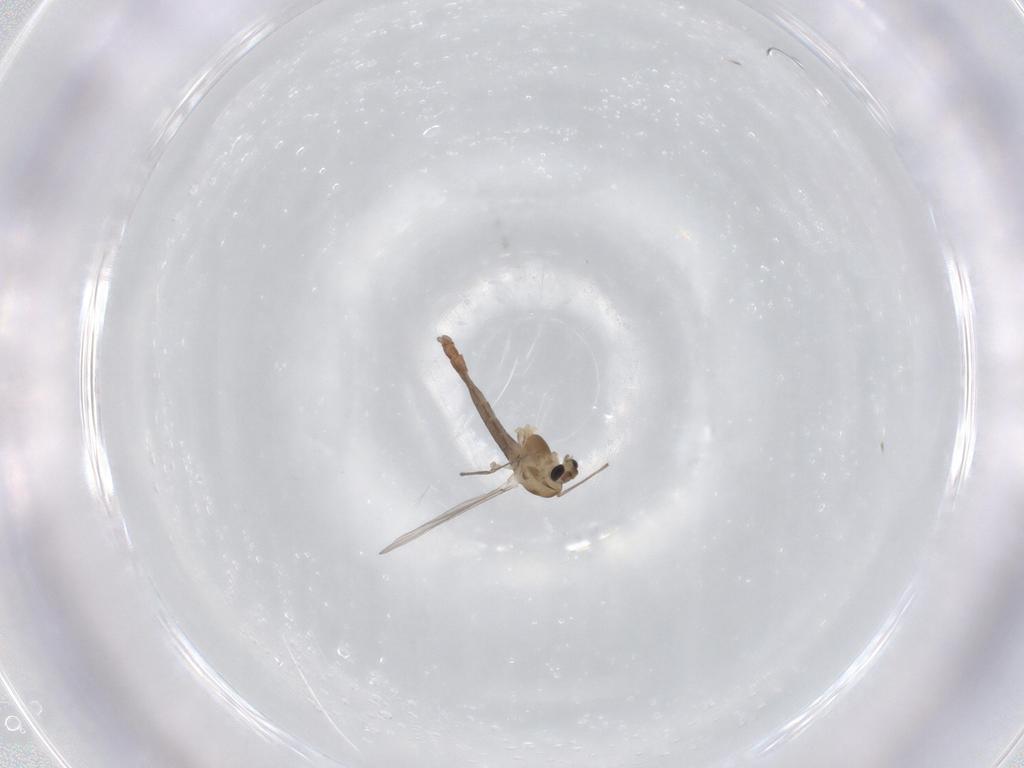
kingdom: Animalia
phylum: Arthropoda
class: Insecta
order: Diptera
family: Chironomidae
